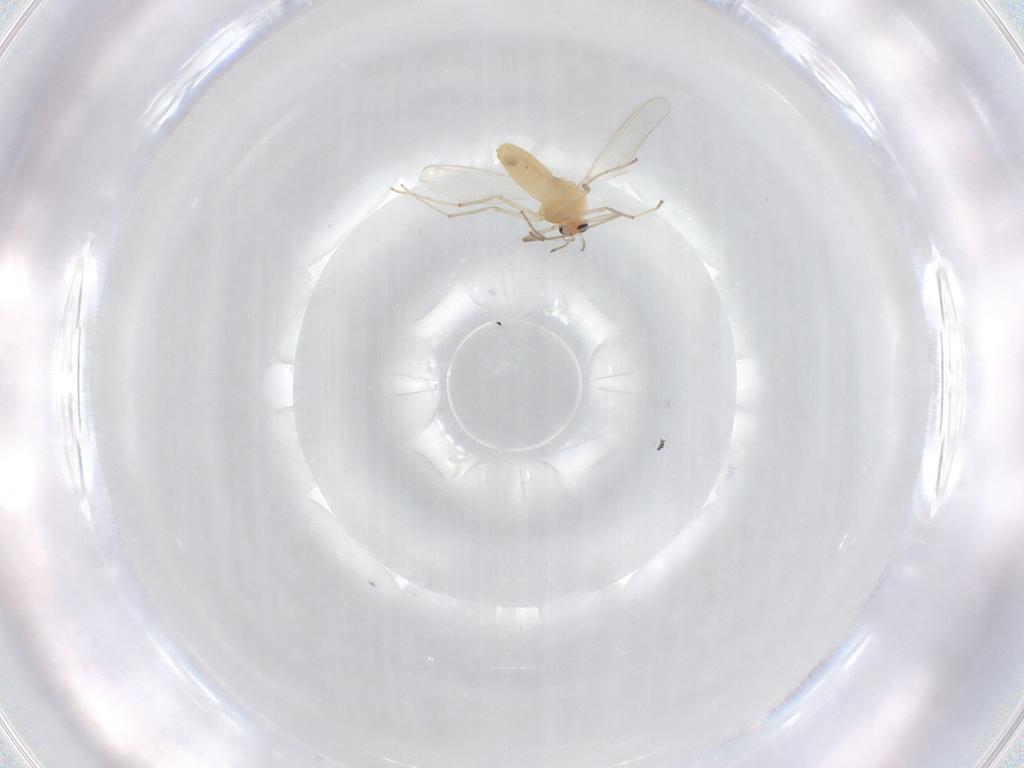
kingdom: Animalia
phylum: Arthropoda
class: Insecta
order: Diptera
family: Chironomidae
